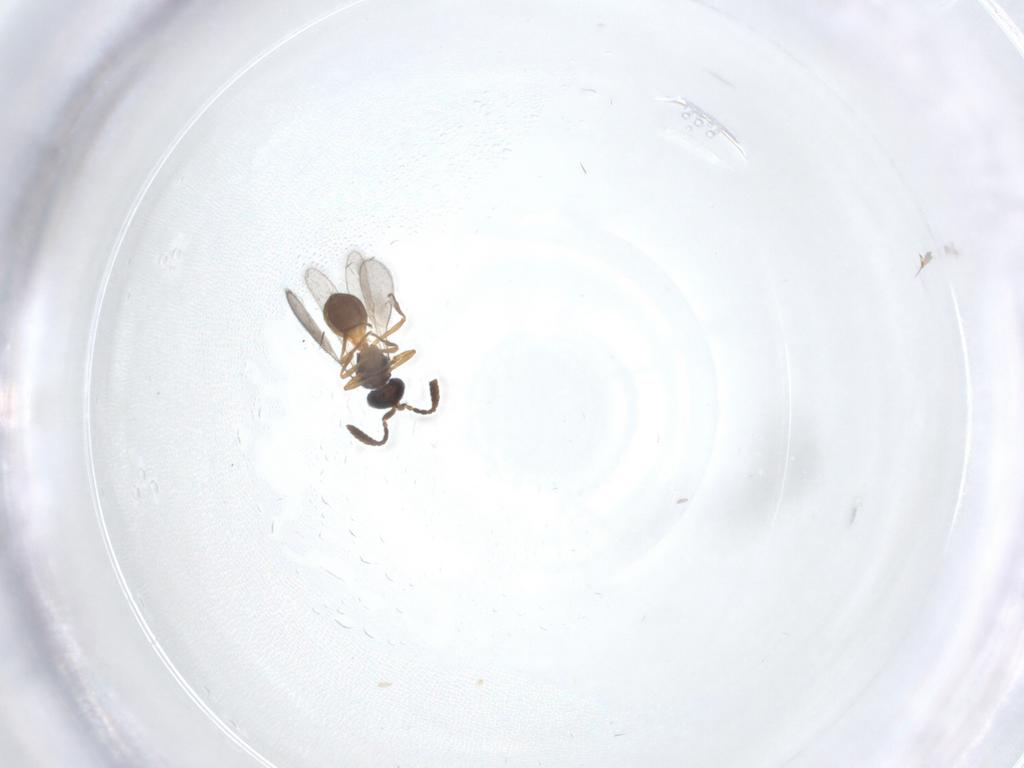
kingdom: Animalia
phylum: Arthropoda
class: Insecta
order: Hymenoptera
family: Scelionidae
